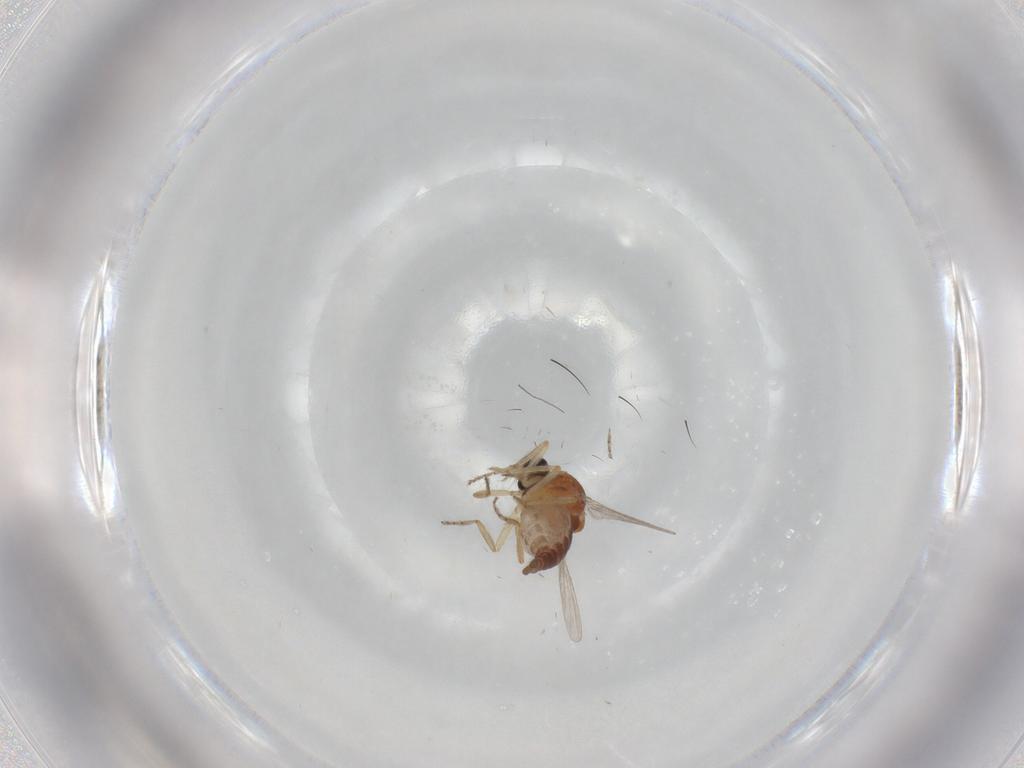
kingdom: Animalia
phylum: Arthropoda
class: Insecta
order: Diptera
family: Ceratopogonidae
